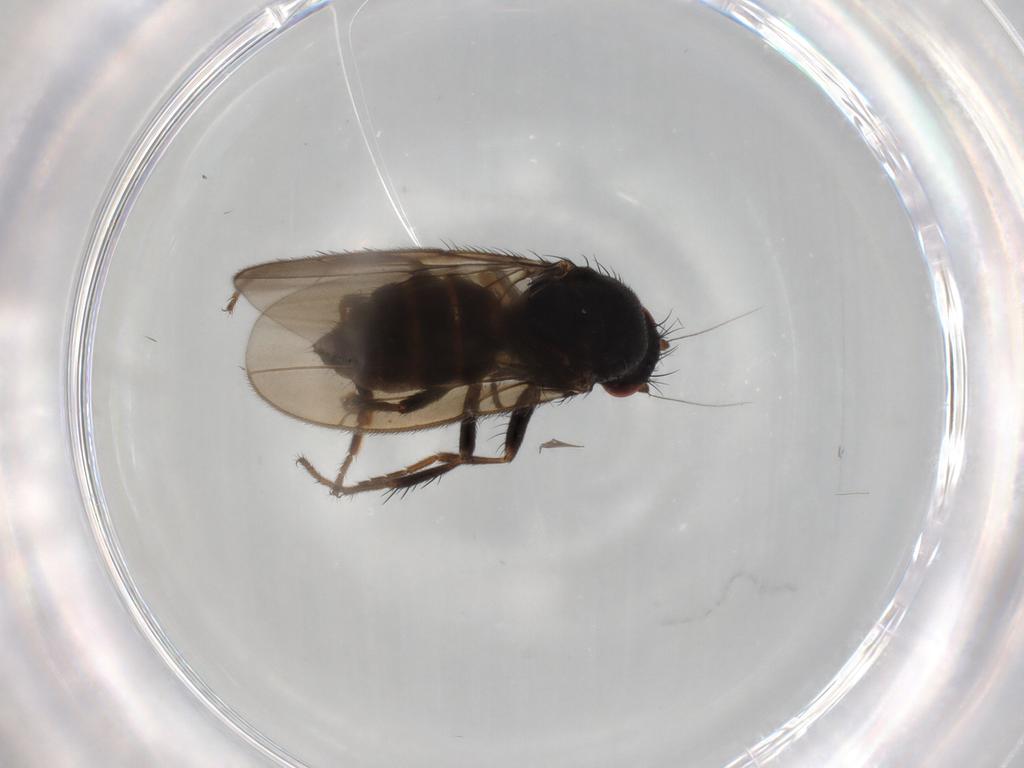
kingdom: Animalia
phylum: Arthropoda
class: Insecta
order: Diptera
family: Sphaeroceridae
